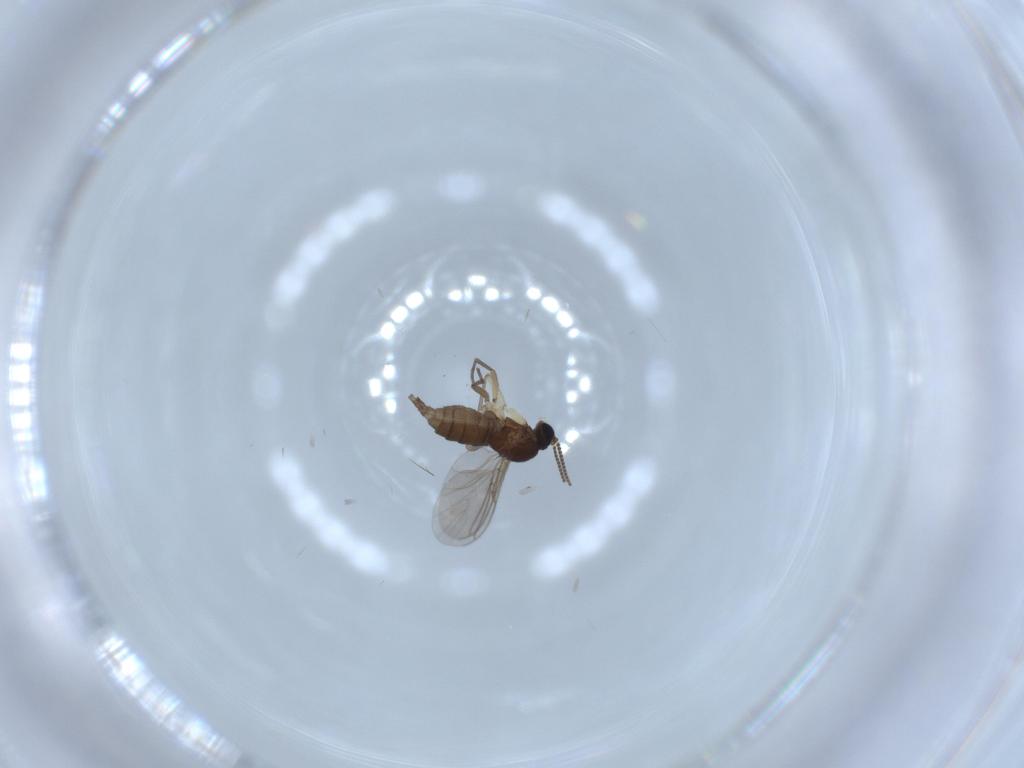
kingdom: Animalia
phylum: Arthropoda
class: Insecta
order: Diptera
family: Sciaridae
